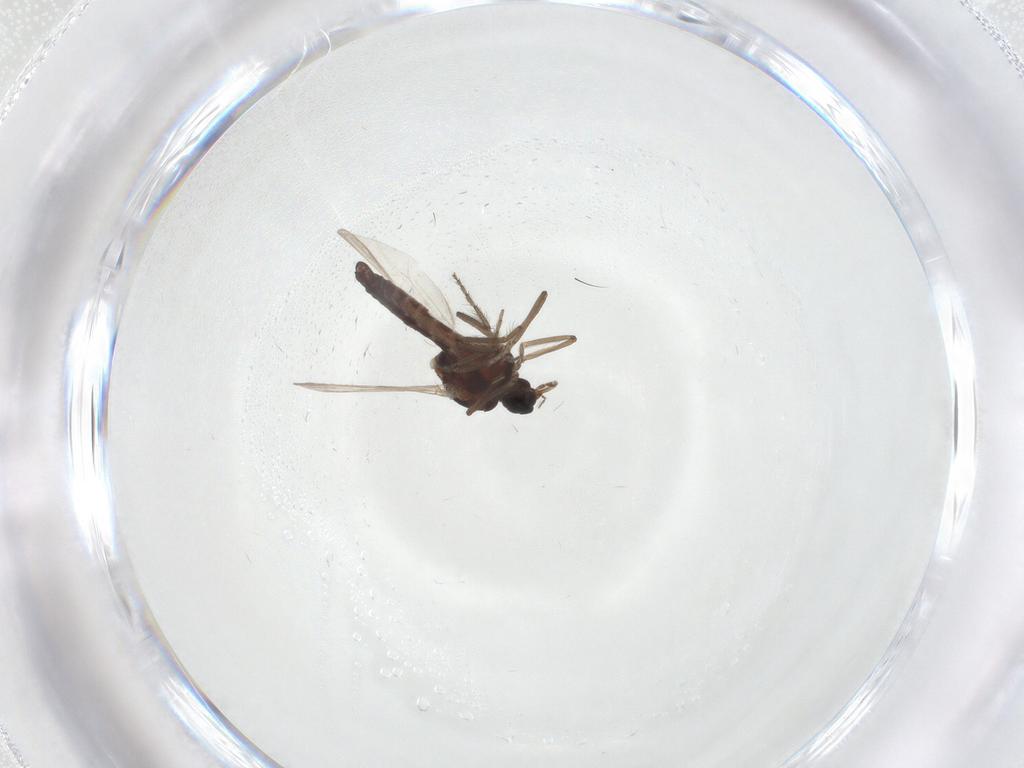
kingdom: Animalia
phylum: Arthropoda
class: Insecta
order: Diptera
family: Ceratopogonidae
